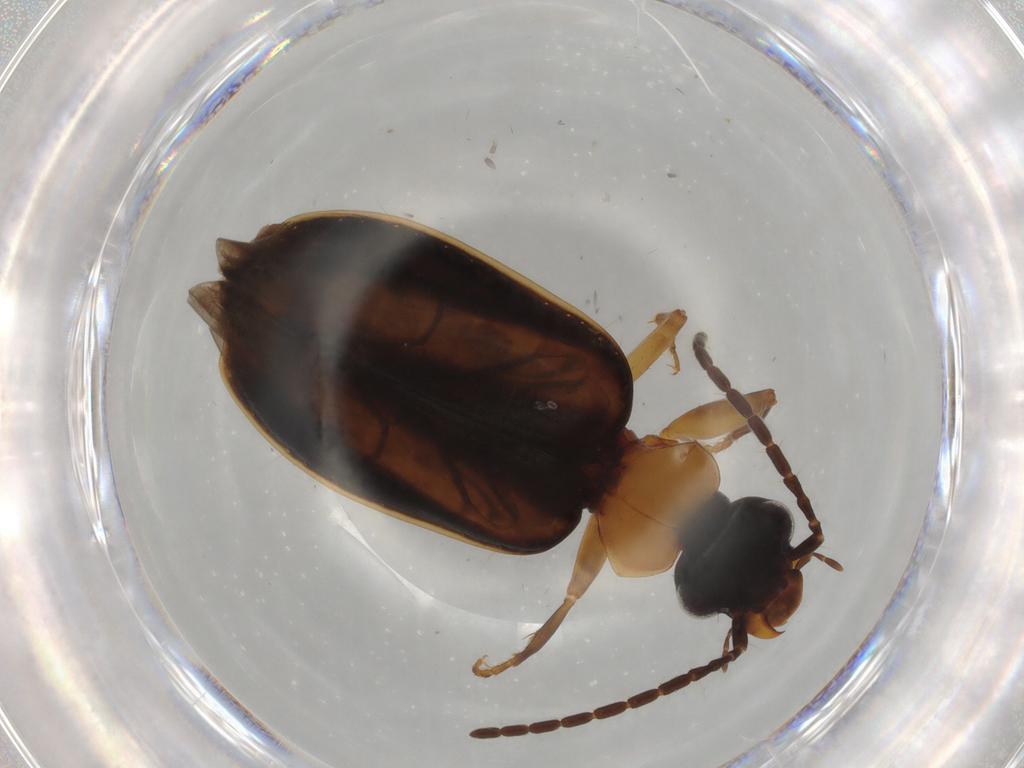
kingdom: Animalia
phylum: Arthropoda
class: Insecta
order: Coleoptera
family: Carabidae
